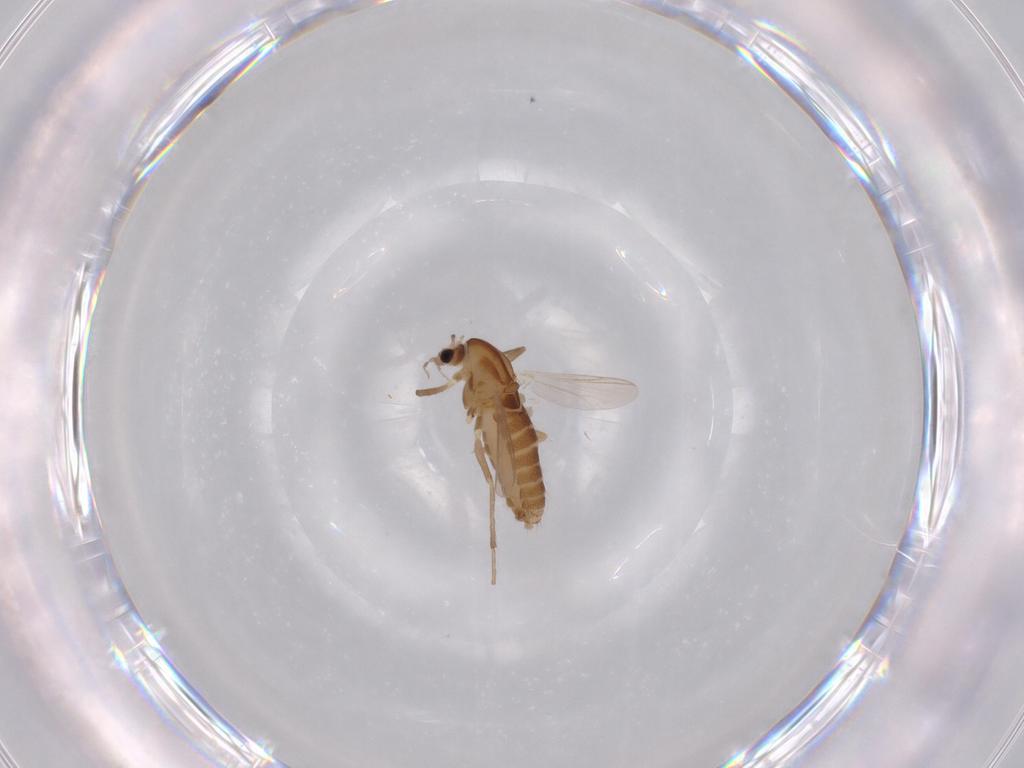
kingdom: Animalia
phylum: Arthropoda
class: Insecta
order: Diptera
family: Chironomidae
